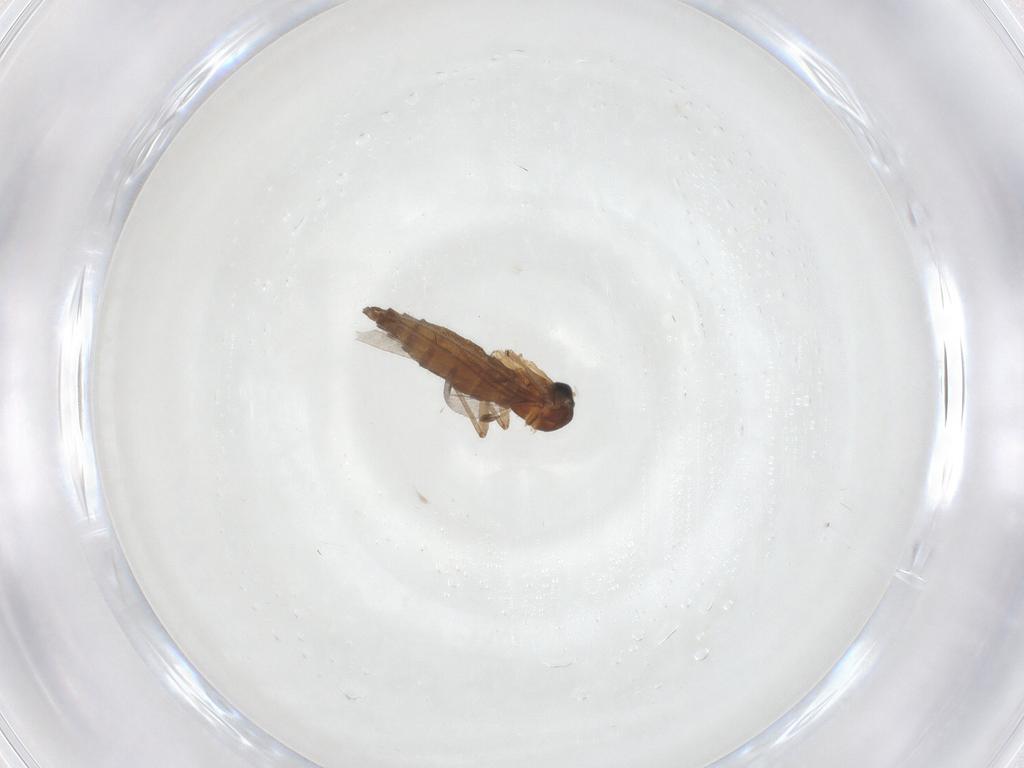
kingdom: Animalia
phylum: Arthropoda
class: Insecta
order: Diptera
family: Sciaridae
